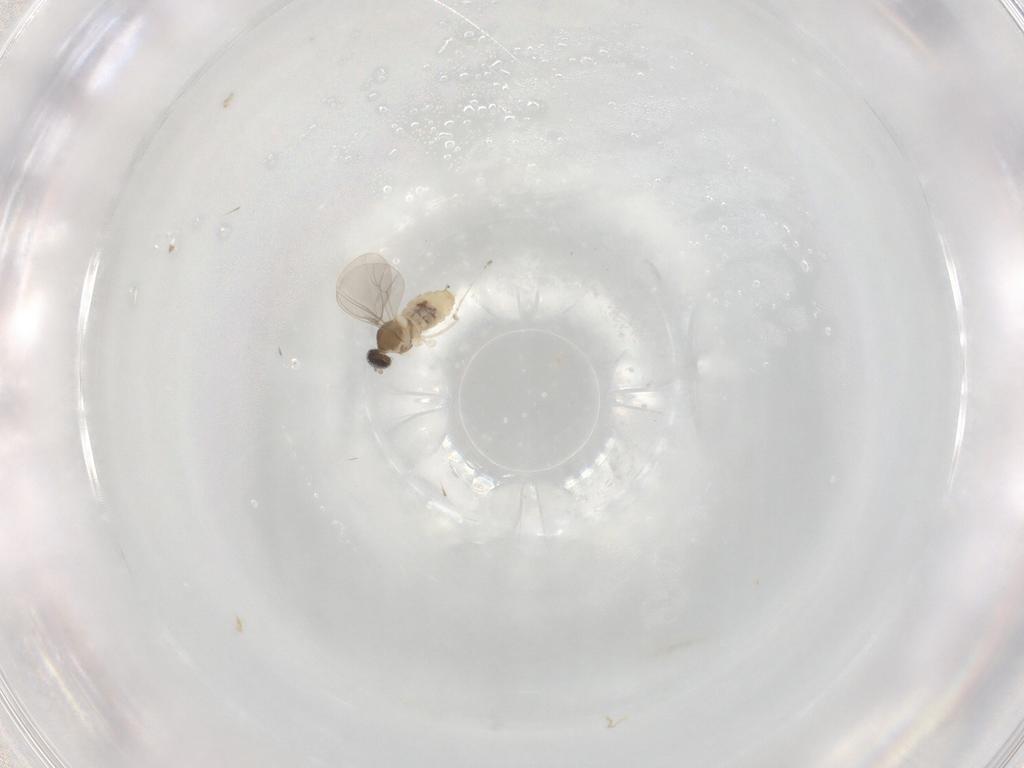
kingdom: Animalia
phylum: Arthropoda
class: Insecta
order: Diptera
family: Cecidomyiidae
